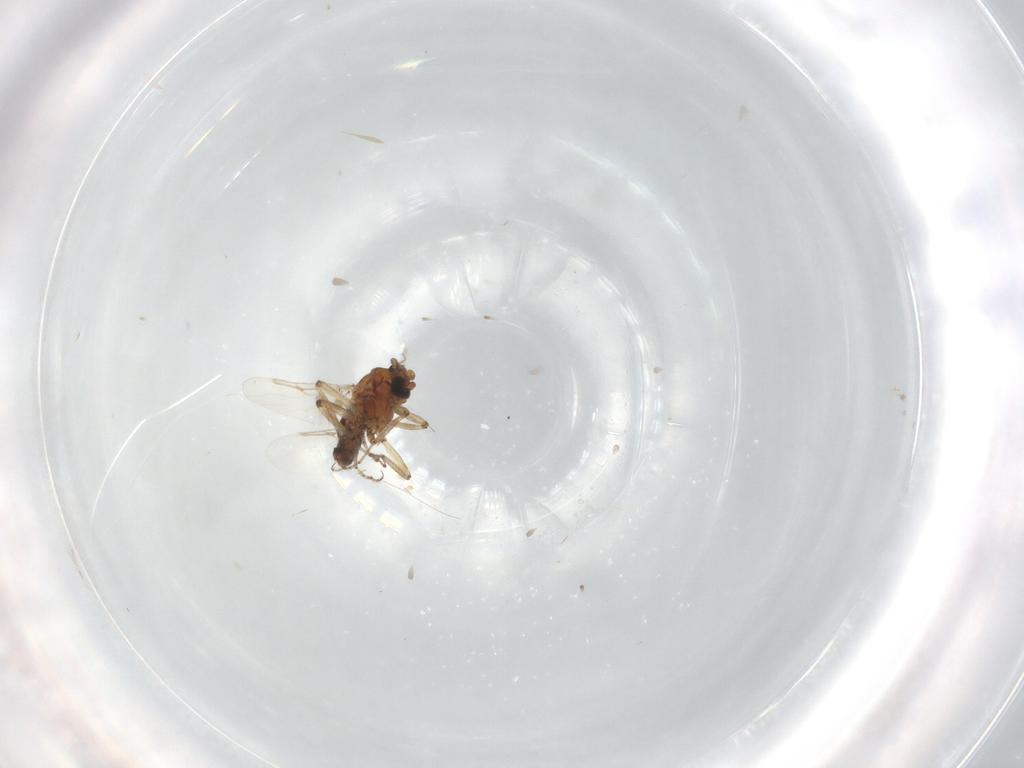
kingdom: Animalia
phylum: Arthropoda
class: Insecta
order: Diptera
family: Ceratopogonidae
